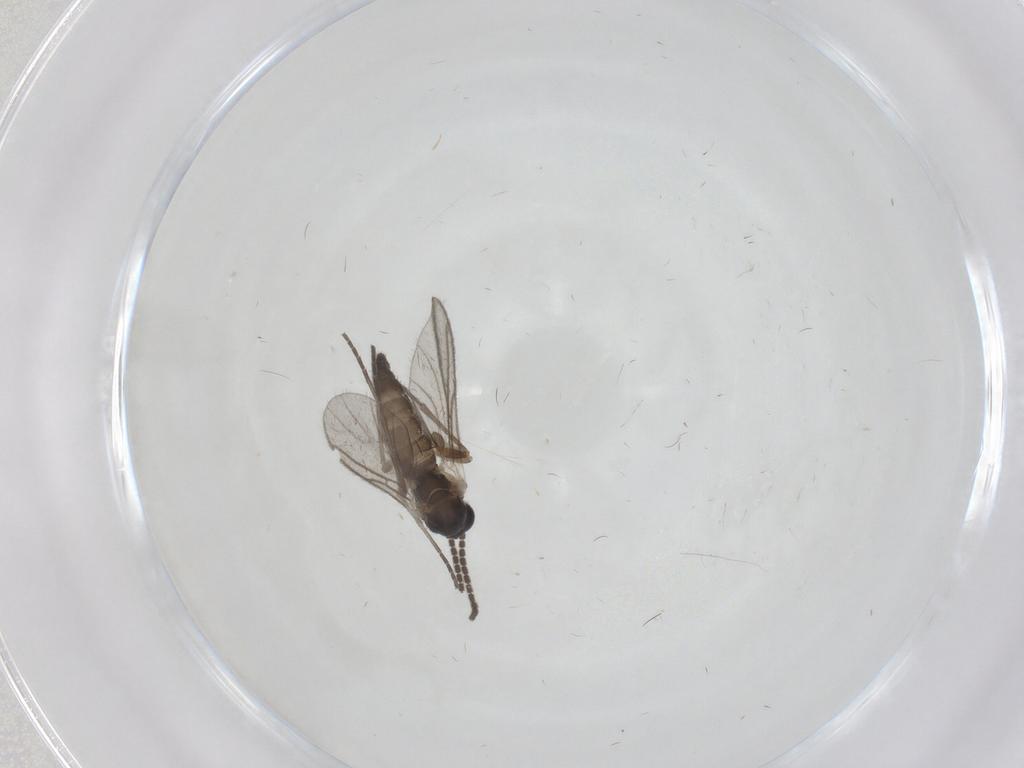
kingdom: Animalia
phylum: Arthropoda
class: Insecta
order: Diptera
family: Sciaridae
